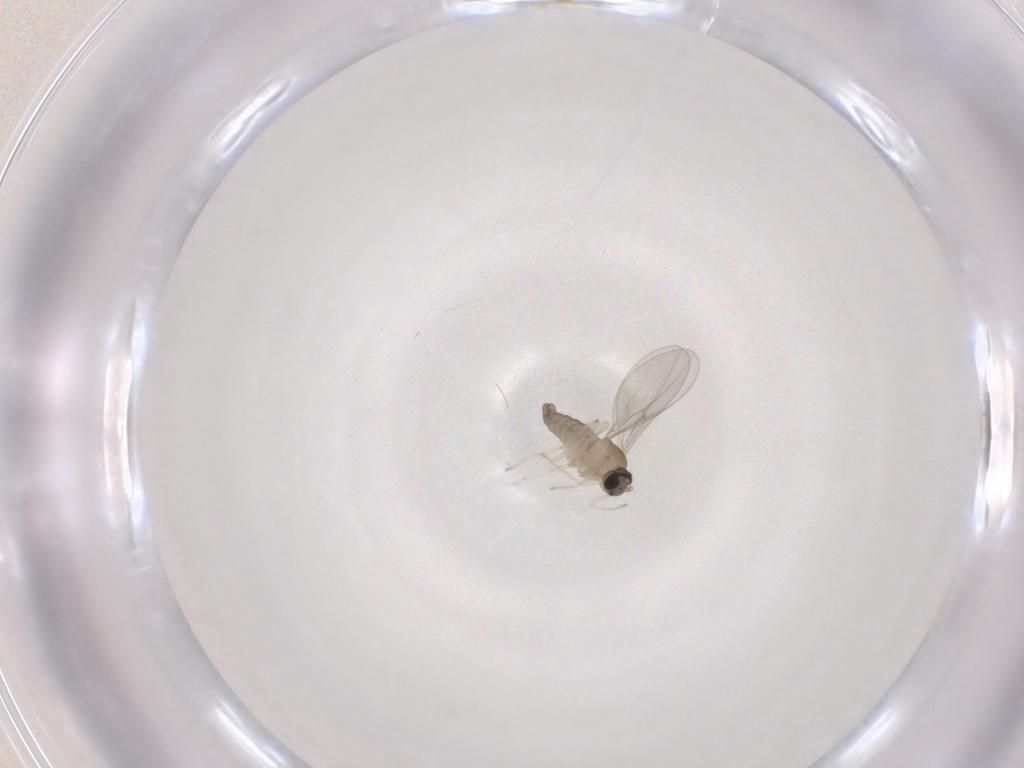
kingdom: Animalia
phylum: Arthropoda
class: Insecta
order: Diptera
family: Cecidomyiidae
